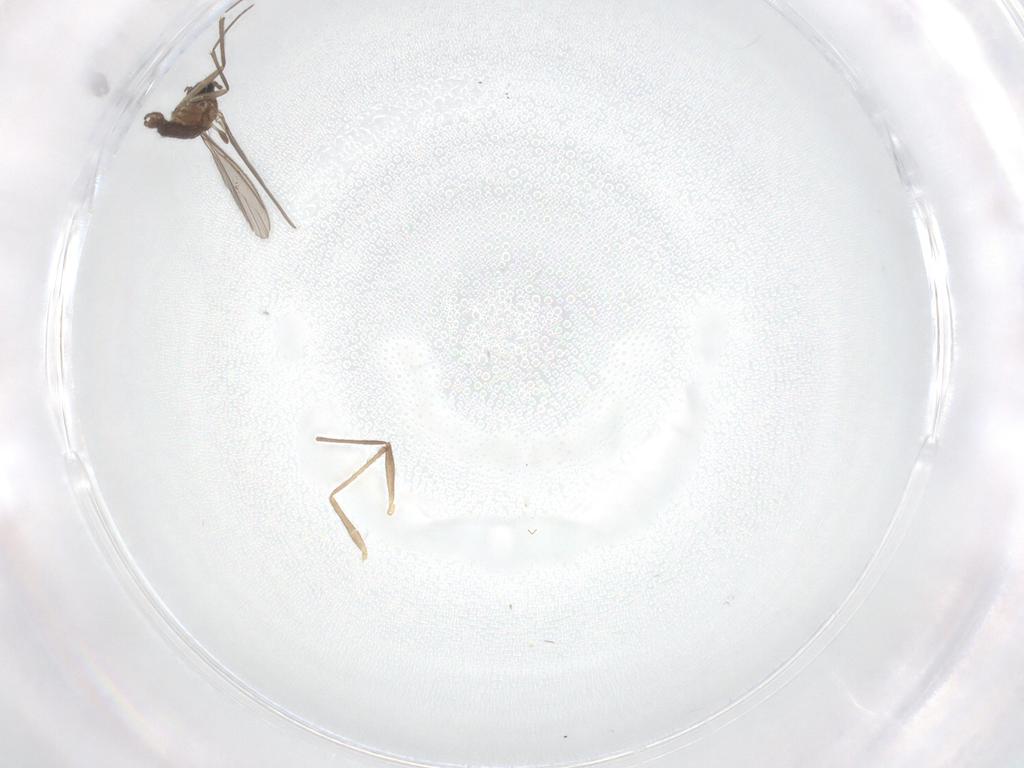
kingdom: Animalia
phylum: Arthropoda
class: Insecta
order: Diptera
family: Chironomidae
